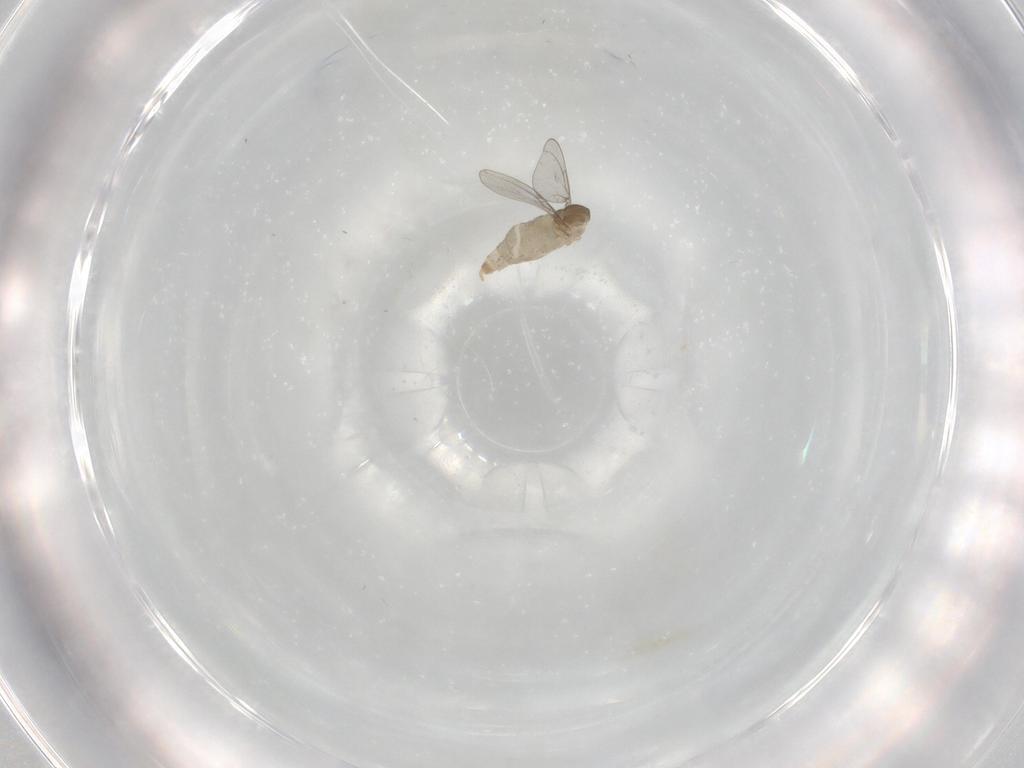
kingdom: Animalia
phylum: Arthropoda
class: Insecta
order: Diptera
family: Cecidomyiidae
